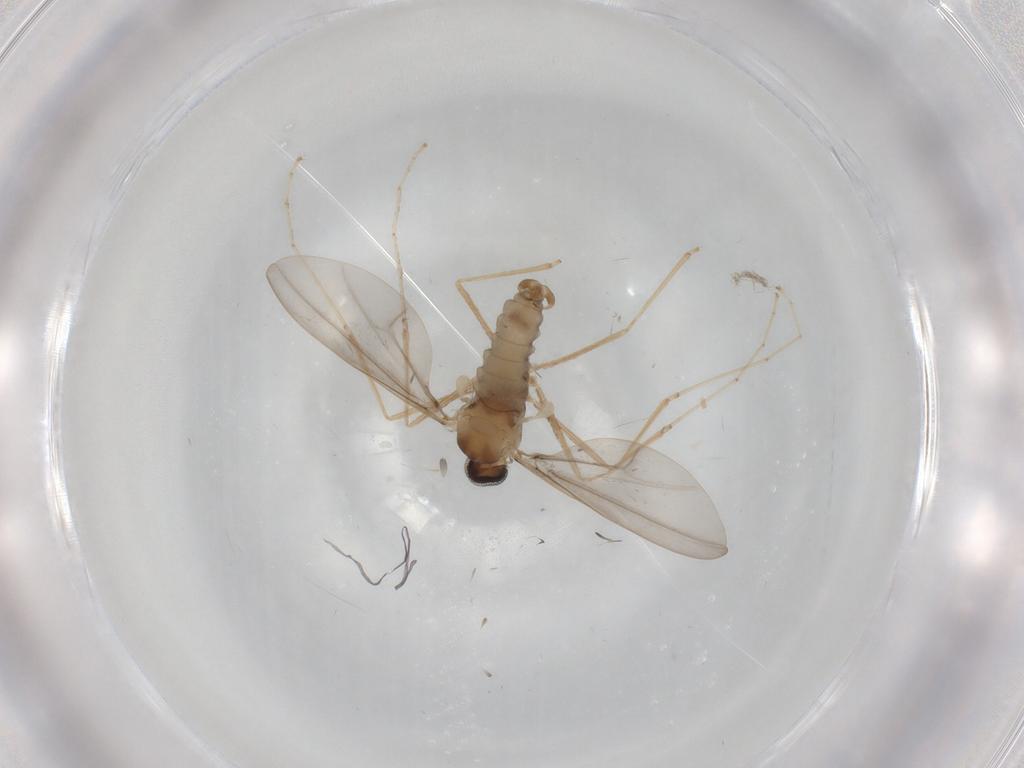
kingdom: Animalia
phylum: Arthropoda
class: Insecta
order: Diptera
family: Cecidomyiidae
